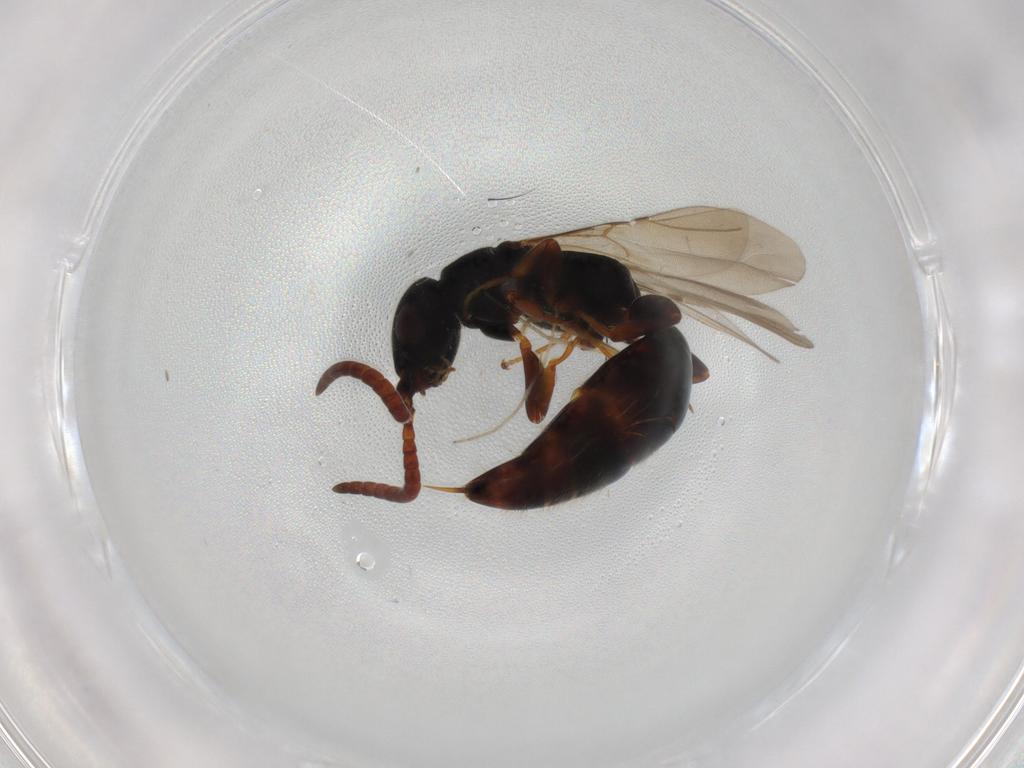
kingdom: Animalia
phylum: Arthropoda
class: Insecta
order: Hymenoptera
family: Bethylidae
